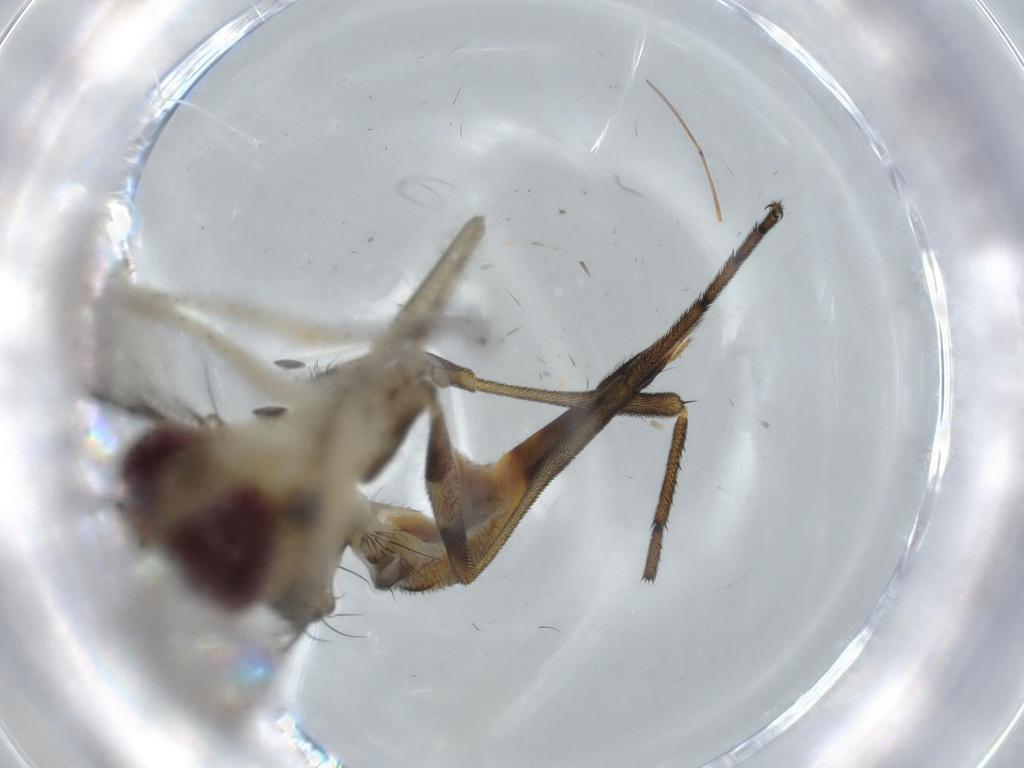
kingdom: Animalia
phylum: Arthropoda
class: Insecta
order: Diptera
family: Conopidae
